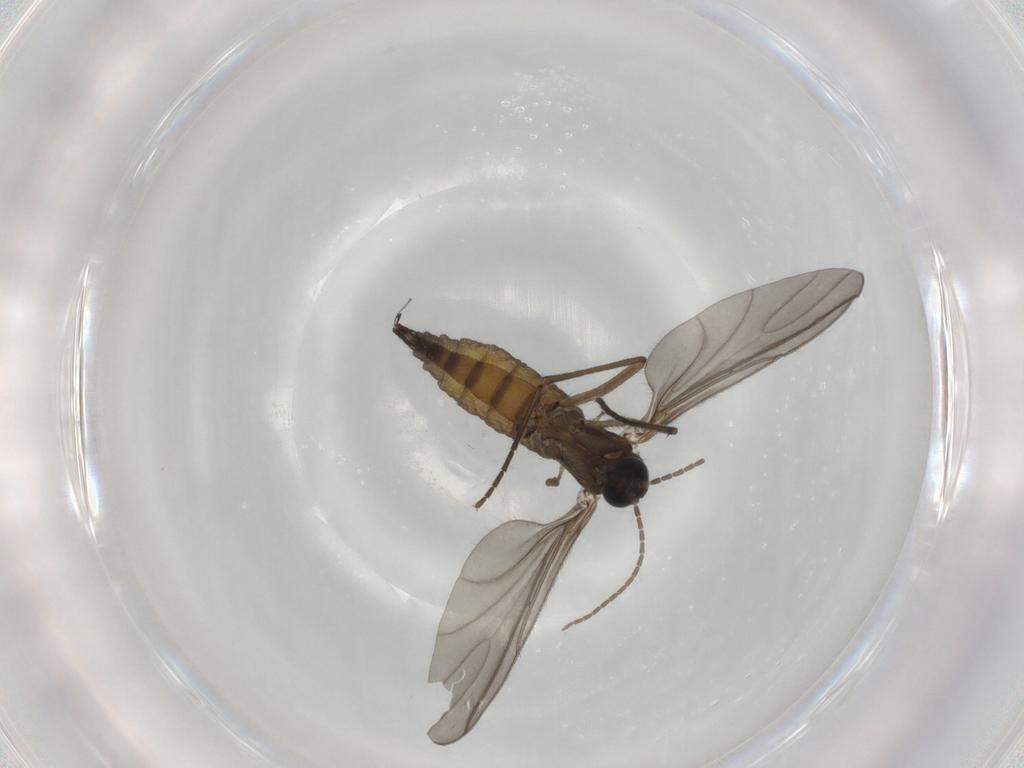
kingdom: Animalia
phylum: Arthropoda
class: Insecta
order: Diptera
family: Sciaridae
